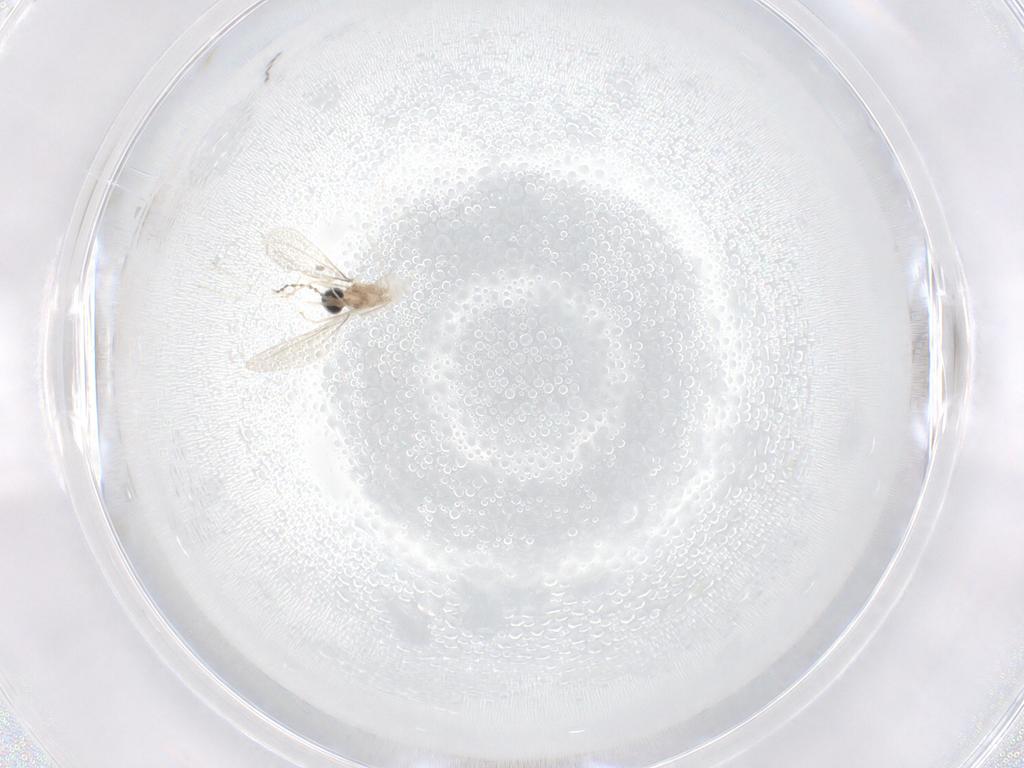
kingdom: Animalia
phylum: Arthropoda
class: Insecta
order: Diptera
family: Cecidomyiidae
